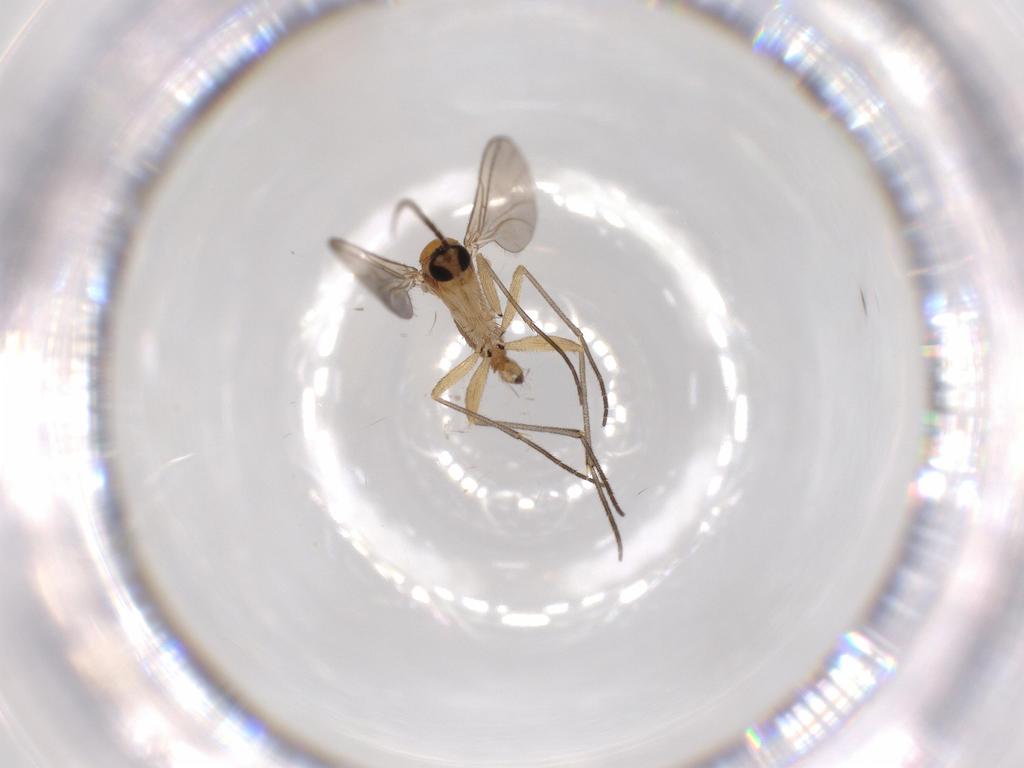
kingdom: Animalia
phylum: Arthropoda
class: Insecta
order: Diptera
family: Sciaridae
